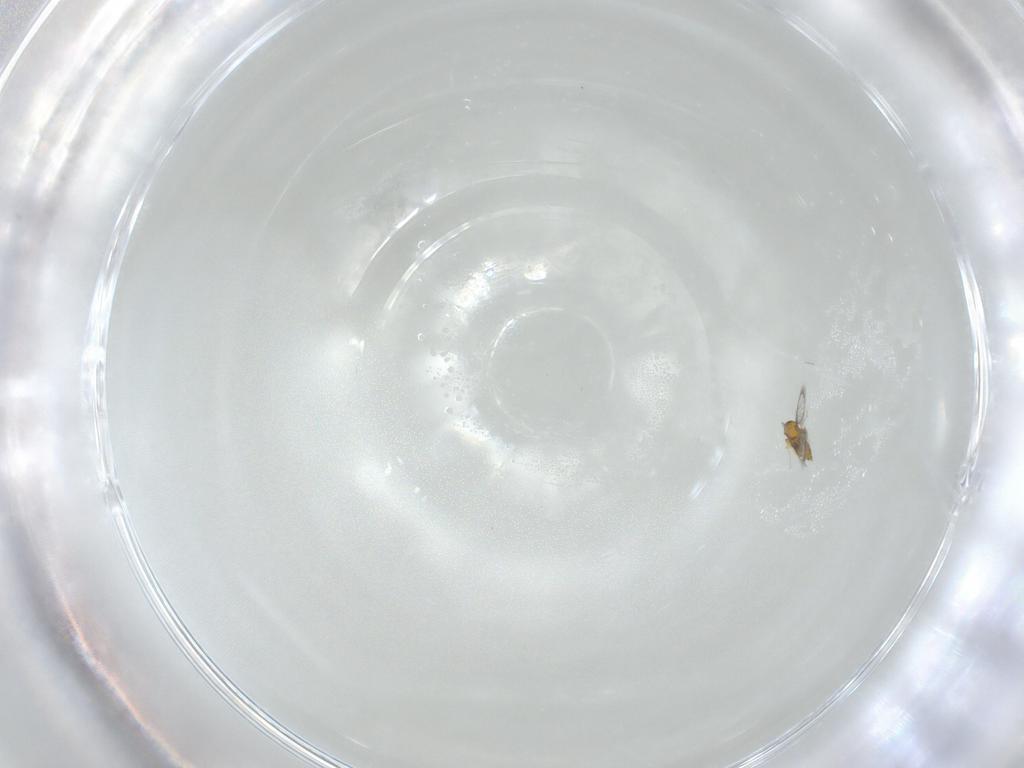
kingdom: Animalia
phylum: Arthropoda
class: Insecta
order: Hymenoptera
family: Trichogrammatidae
